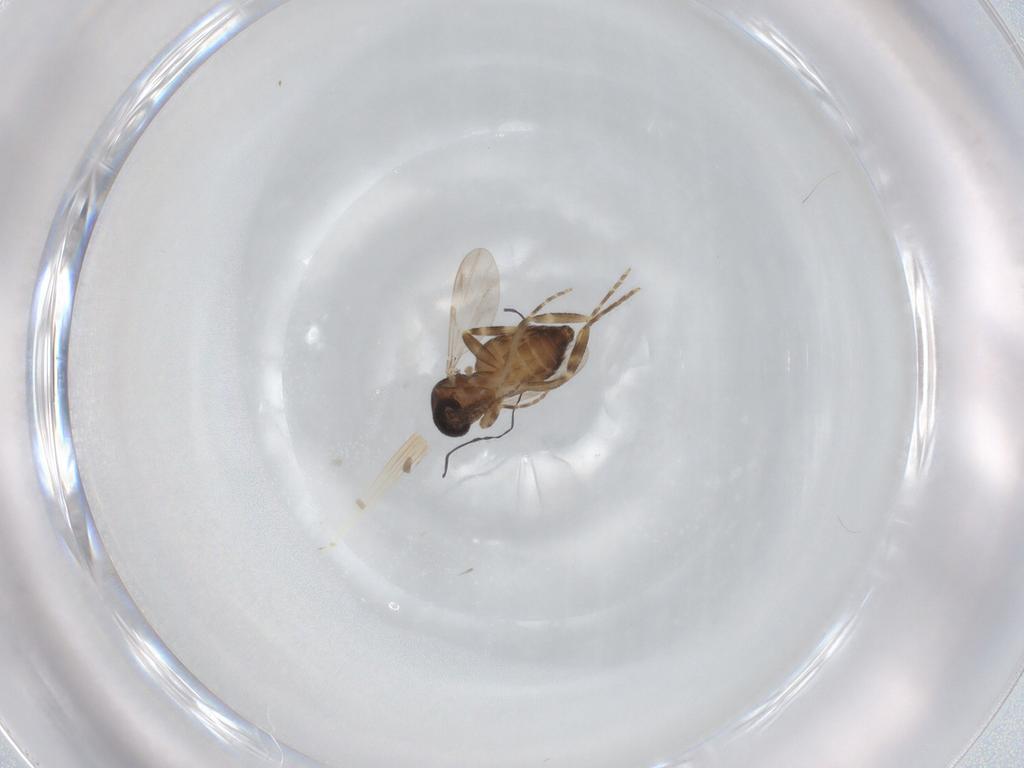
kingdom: Animalia
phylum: Arthropoda
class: Insecta
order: Diptera
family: Ceratopogonidae
